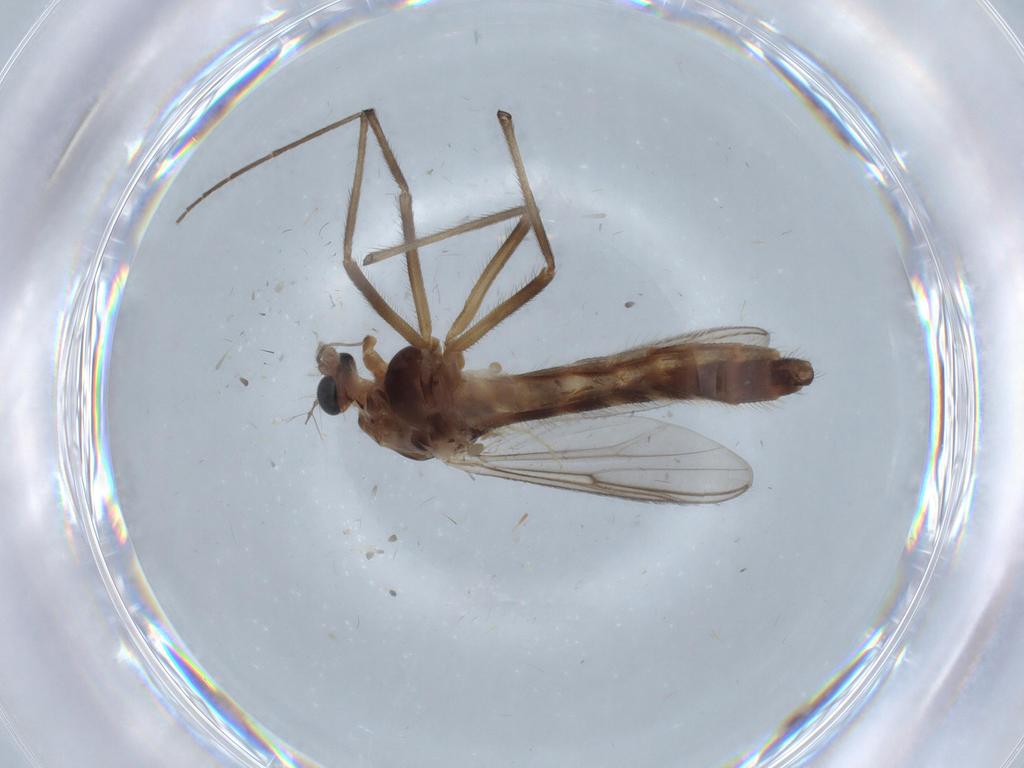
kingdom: Animalia
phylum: Arthropoda
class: Insecta
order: Diptera
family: Chironomidae
